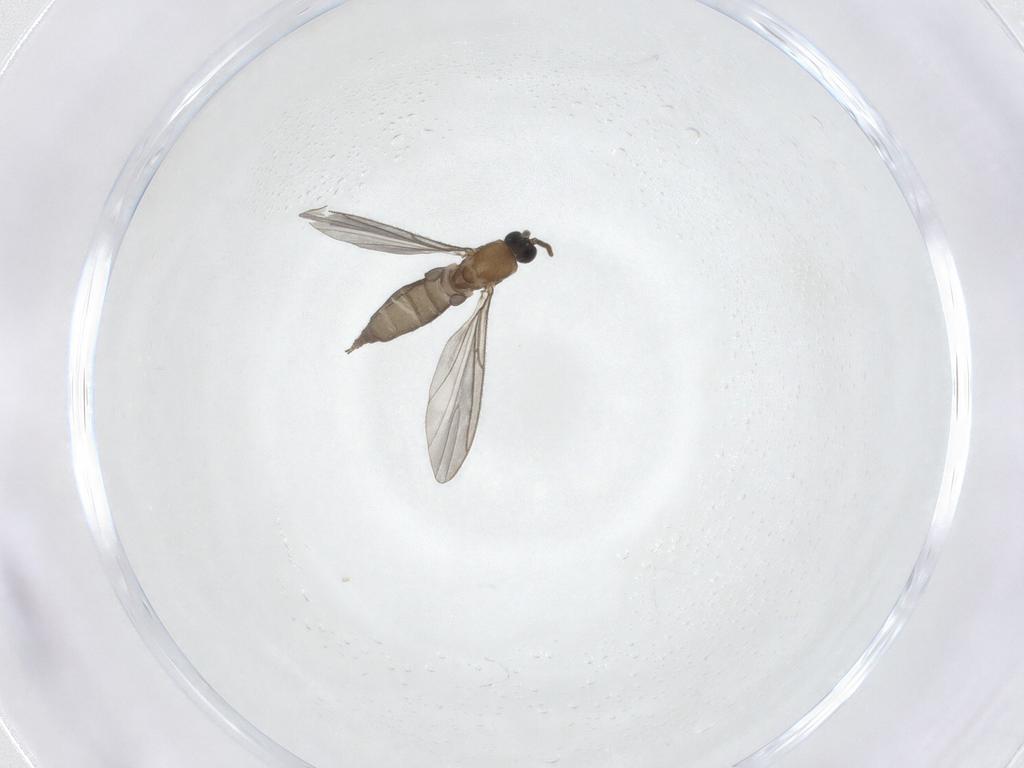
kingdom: Animalia
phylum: Arthropoda
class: Insecta
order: Diptera
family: Sciaridae
